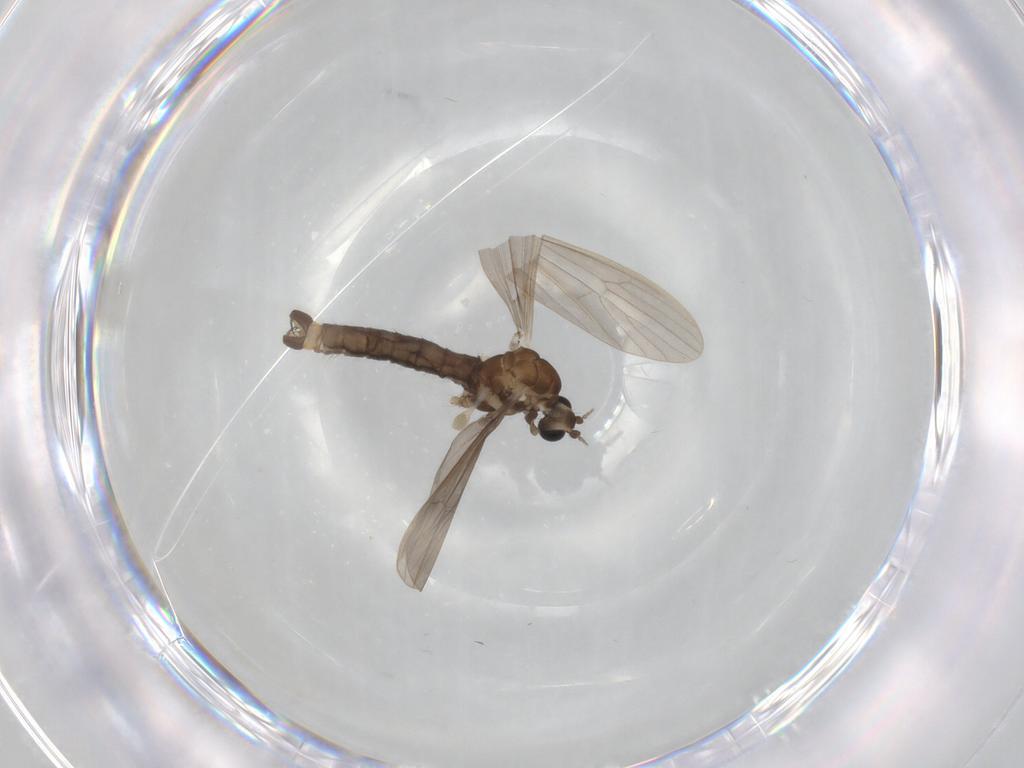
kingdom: Animalia
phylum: Arthropoda
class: Insecta
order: Diptera
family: Cecidomyiidae
